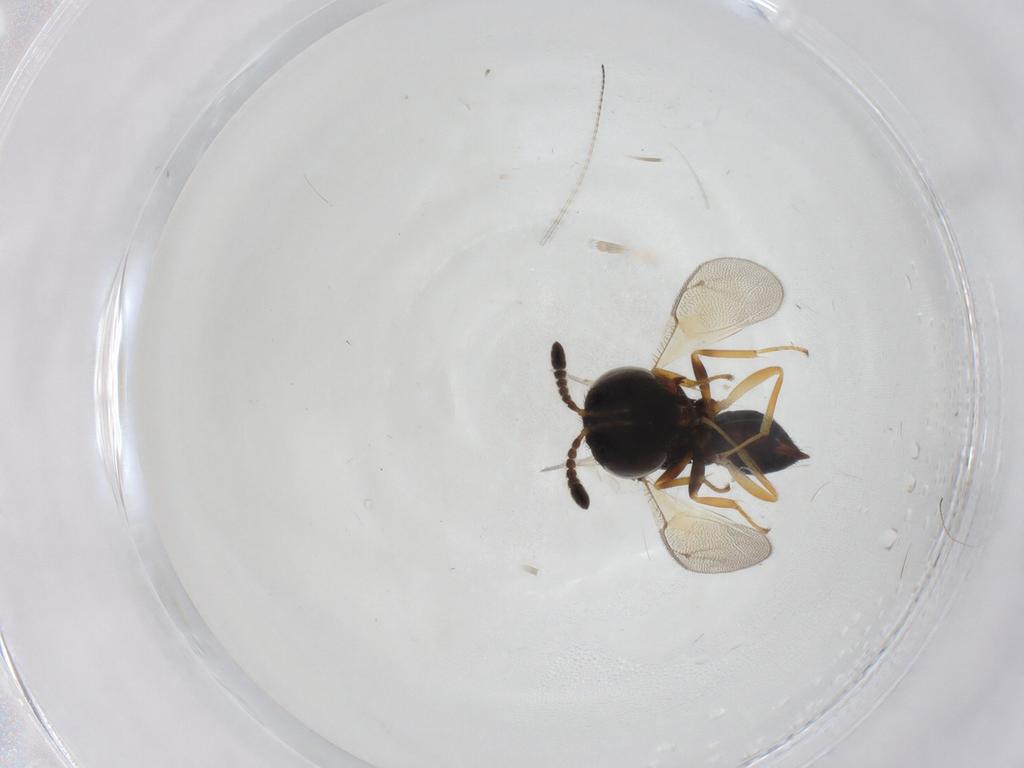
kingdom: Animalia
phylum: Arthropoda
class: Insecta
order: Hymenoptera
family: Pteromalidae
